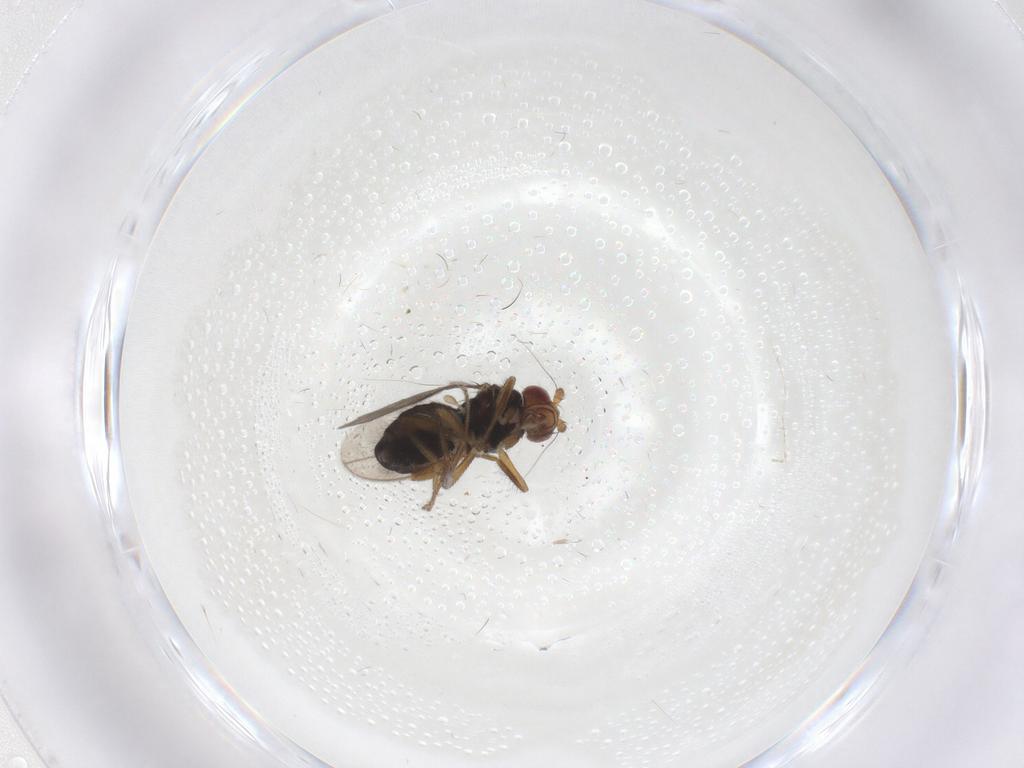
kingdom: Animalia
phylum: Arthropoda
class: Insecta
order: Diptera
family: Sphaeroceridae
